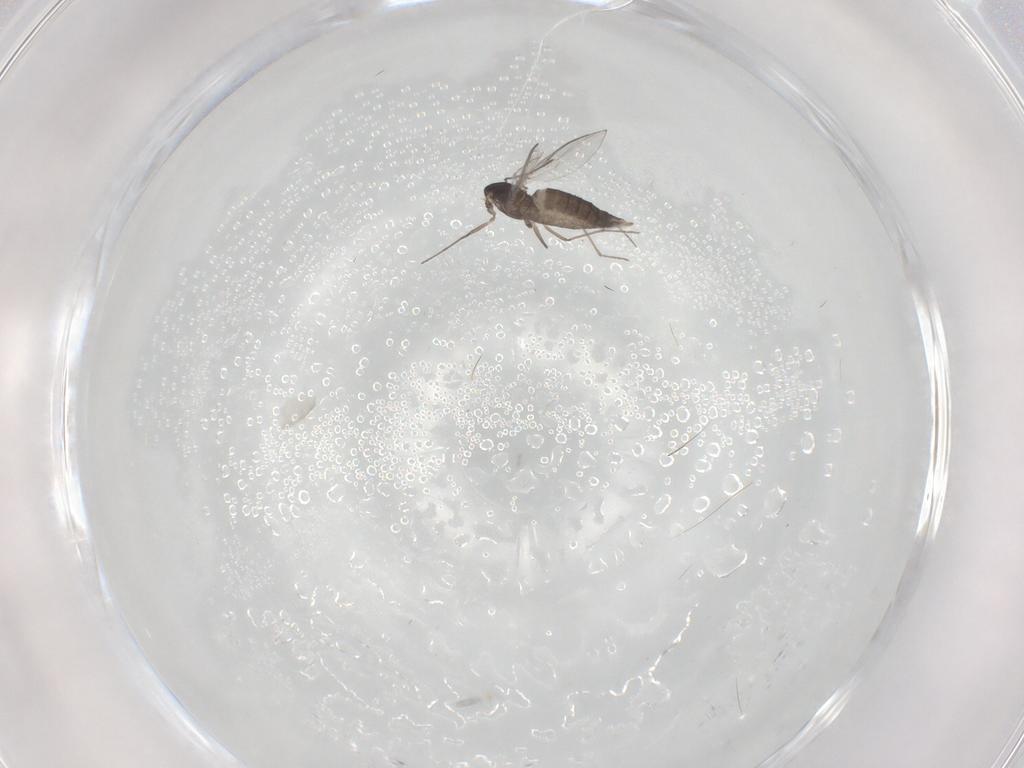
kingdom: Animalia
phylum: Arthropoda
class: Insecta
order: Diptera
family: Chironomidae
